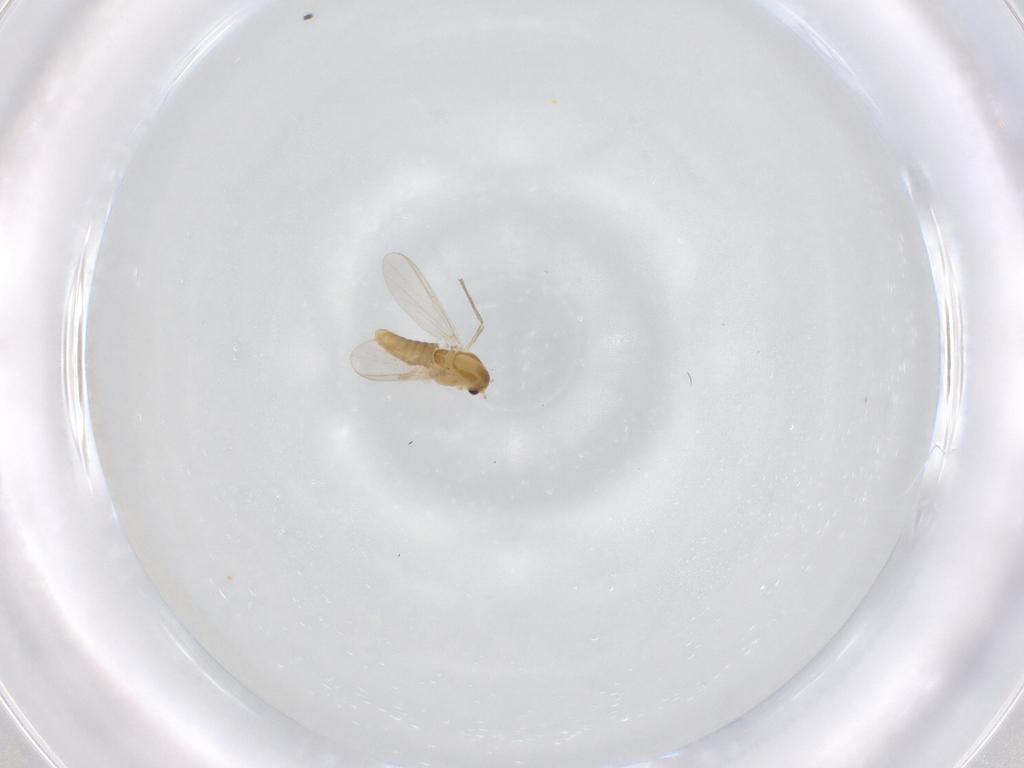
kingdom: Animalia
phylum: Arthropoda
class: Insecta
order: Diptera
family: Chironomidae
